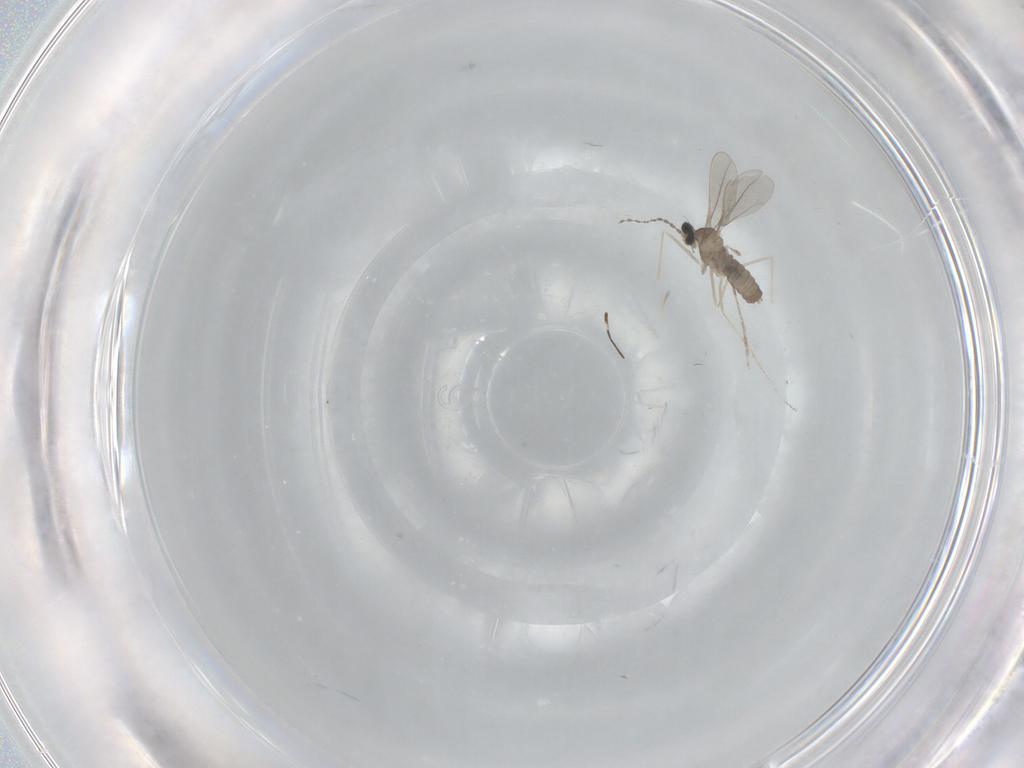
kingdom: Animalia
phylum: Arthropoda
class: Insecta
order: Diptera
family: Cecidomyiidae
